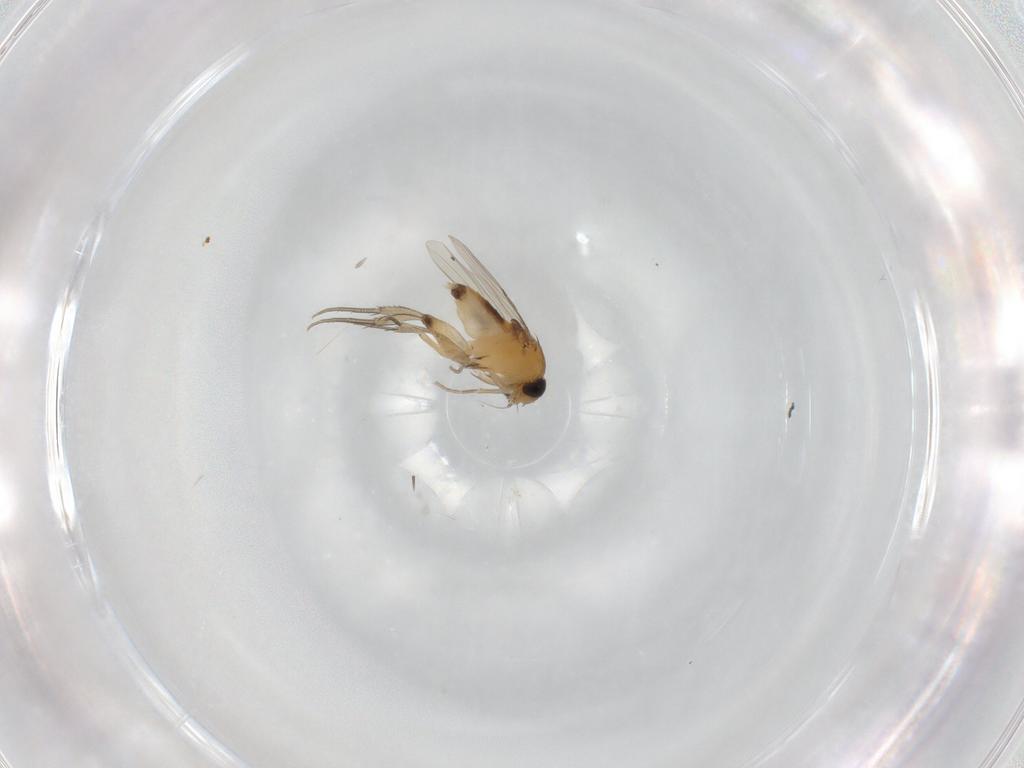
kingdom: Animalia
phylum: Arthropoda
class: Insecta
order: Diptera
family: Phoridae
